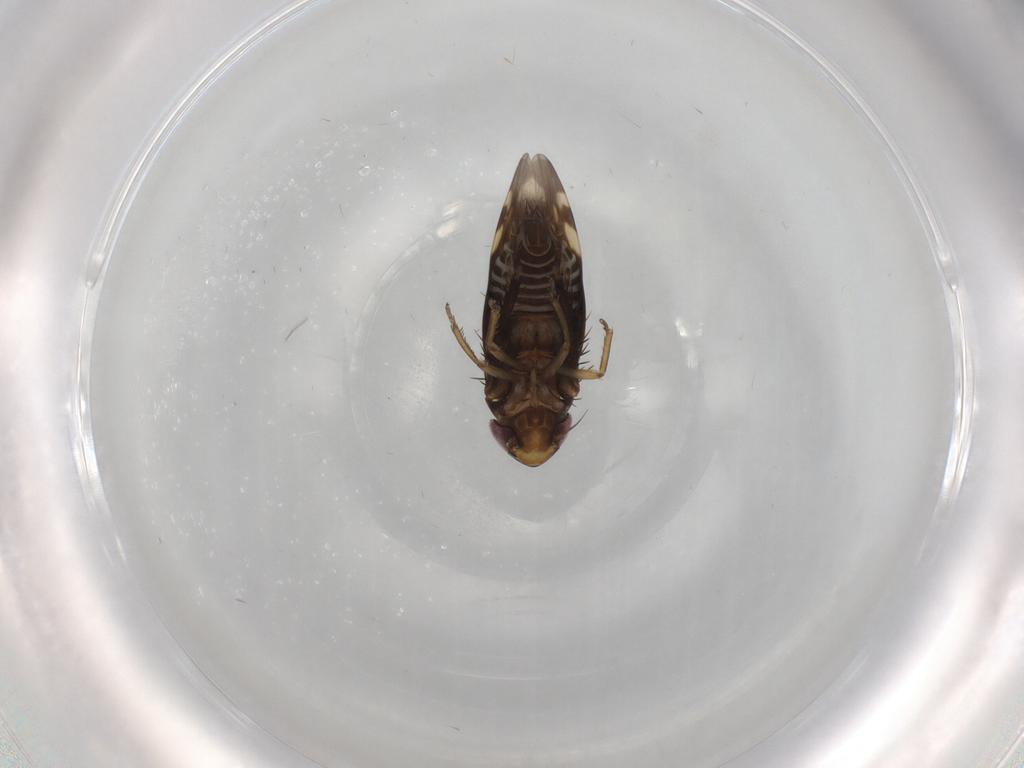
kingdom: Animalia
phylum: Arthropoda
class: Insecta
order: Hemiptera
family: Cicadellidae
